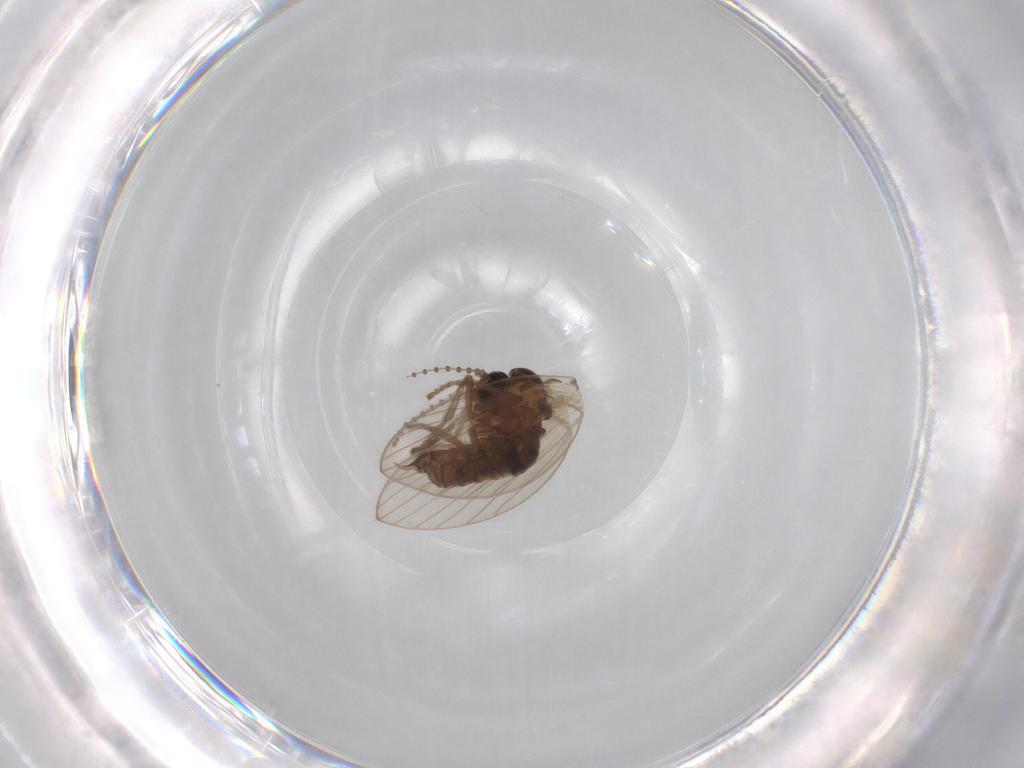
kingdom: Animalia
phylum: Arthropoda
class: Insecta
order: Diptera
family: Psychodidae
